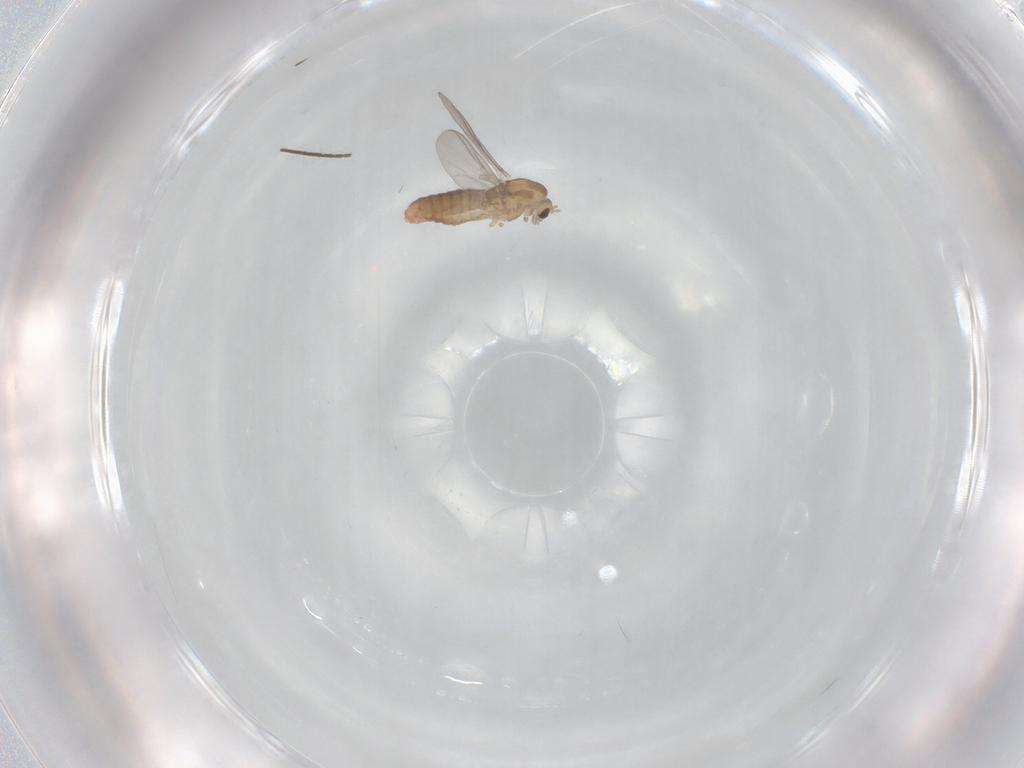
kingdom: Animalia
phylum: Arthropoda
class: Insecta
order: Diptera
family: Chironomidae
